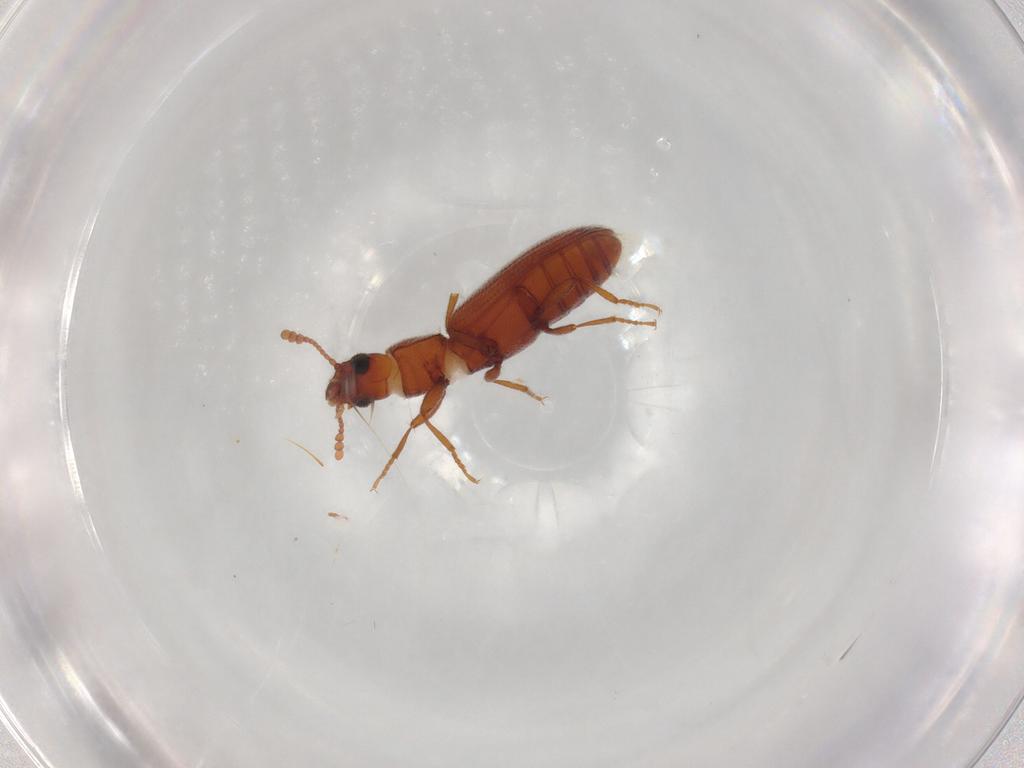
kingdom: Animalia
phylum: Arthropoda
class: Insecta
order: Coleoptera
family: Cryptophagidae
